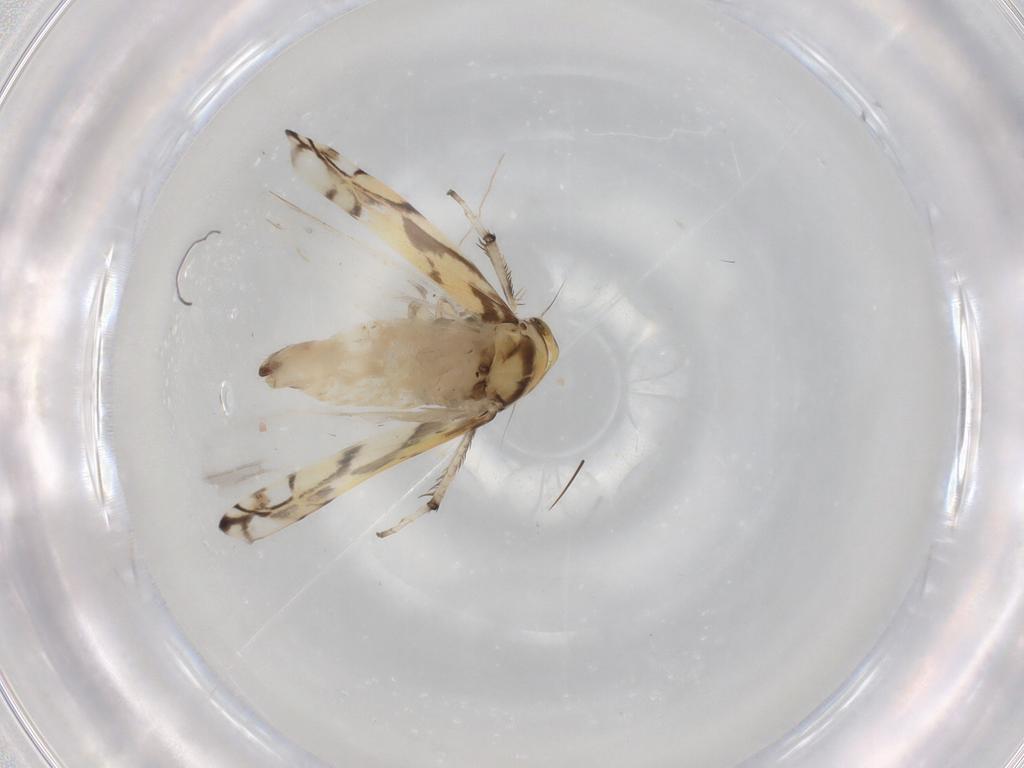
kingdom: Animalia
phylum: Arthropoda
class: Insecta
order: Hemiptera
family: Cicadellidae
